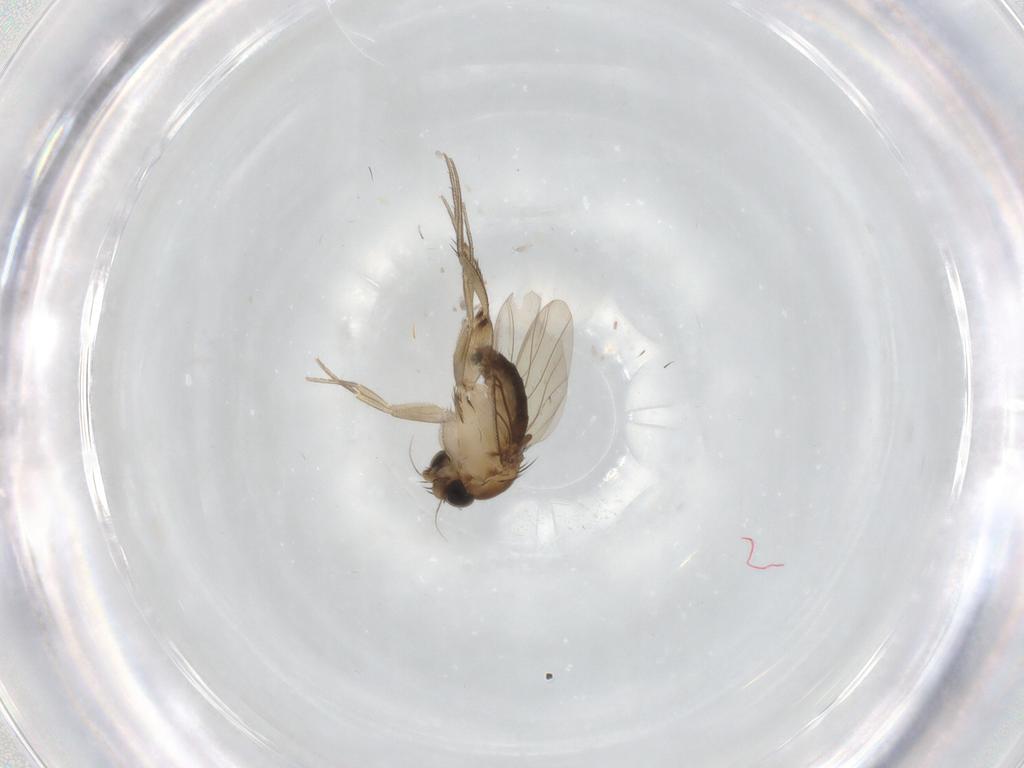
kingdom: Animalia
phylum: Arthropoda
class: Insecta
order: Diptera
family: Phoridae
